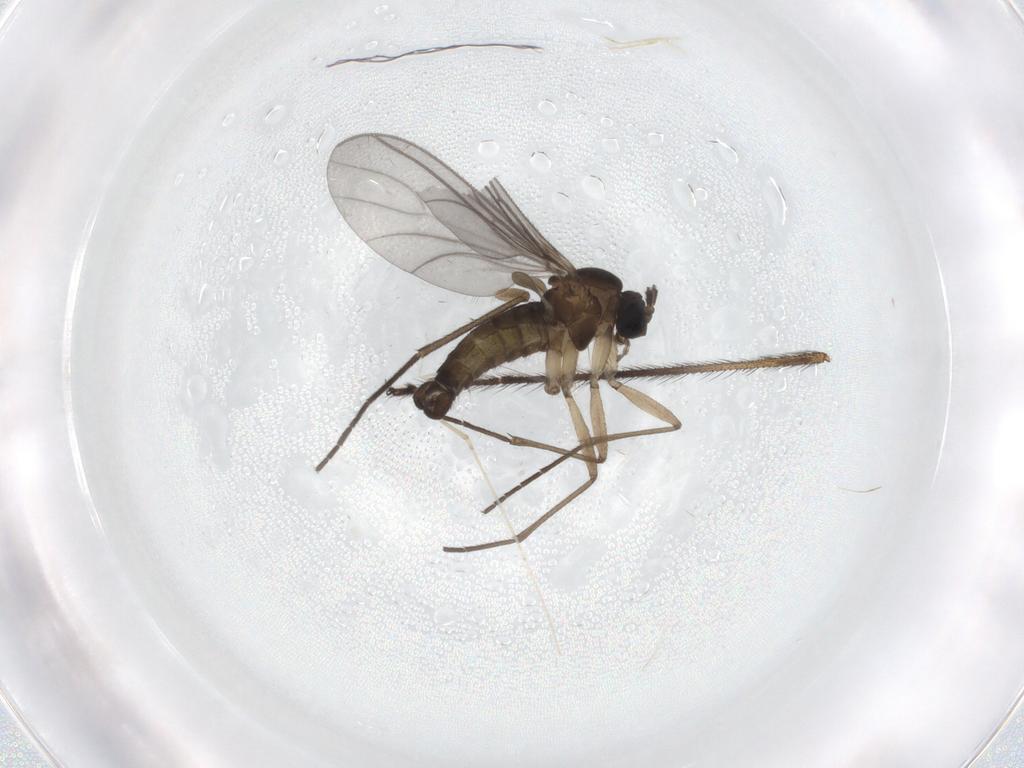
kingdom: Animalia
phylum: Arthropoda
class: Insecta
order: Diptera
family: Sciaridae
